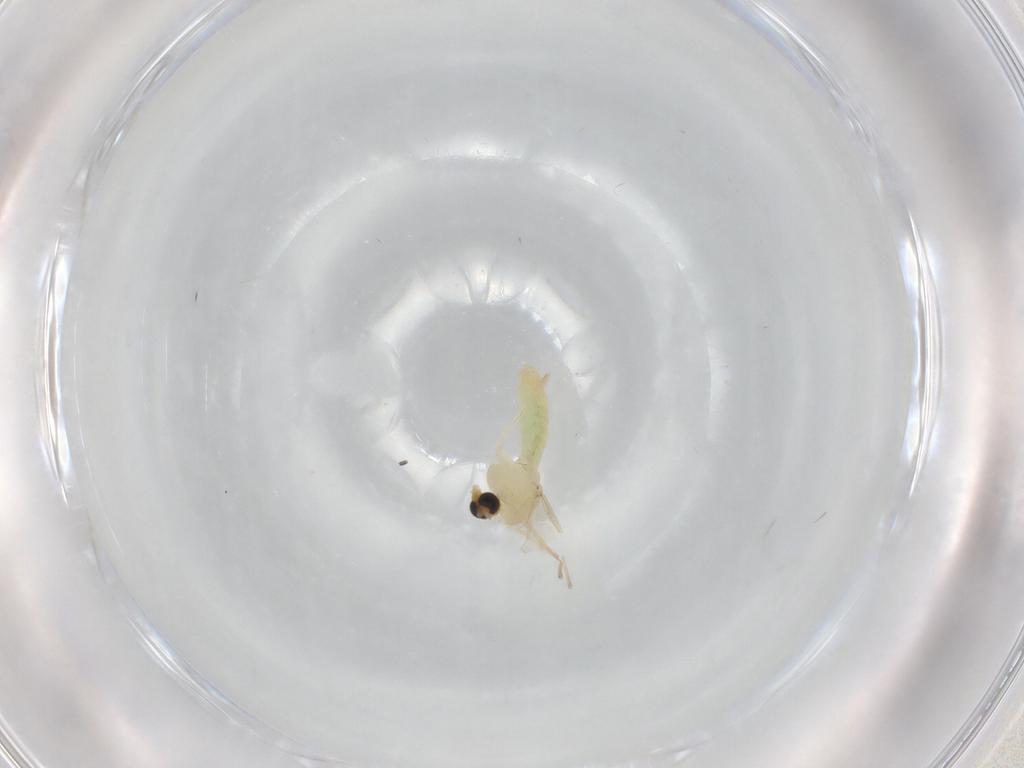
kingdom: Animalia
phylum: Arthropoda
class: Insecta
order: Diptera
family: Chironomidae
